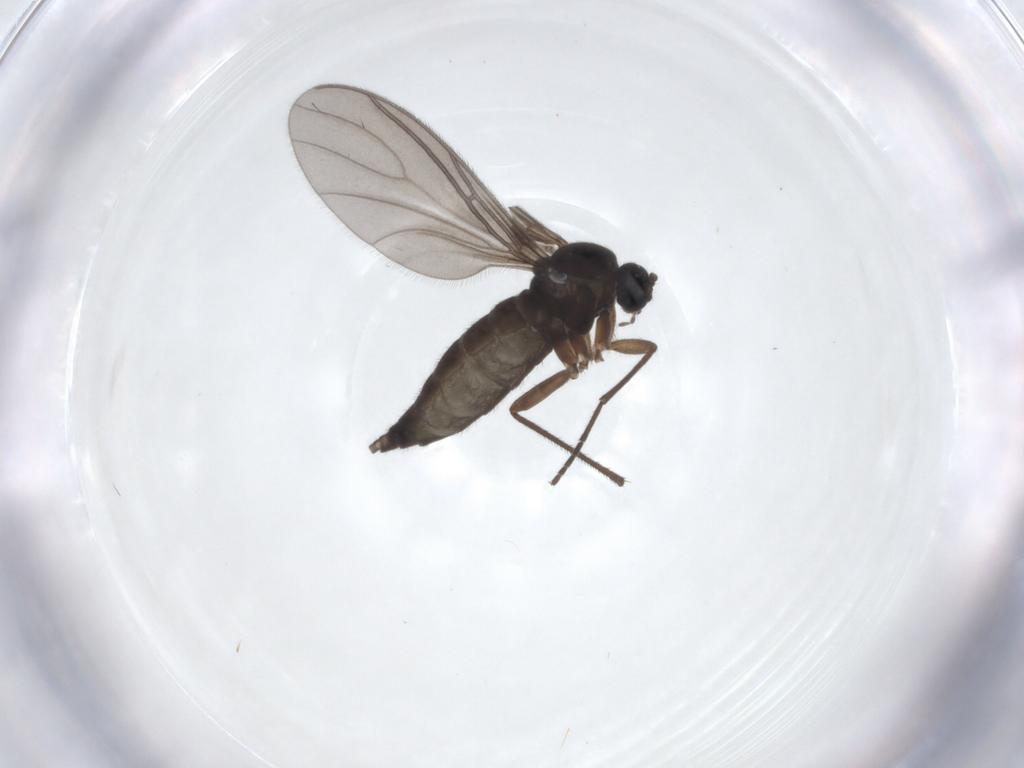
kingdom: Animalia
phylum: Arthropoda
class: Insecta
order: Diptera
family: Sciaridae
